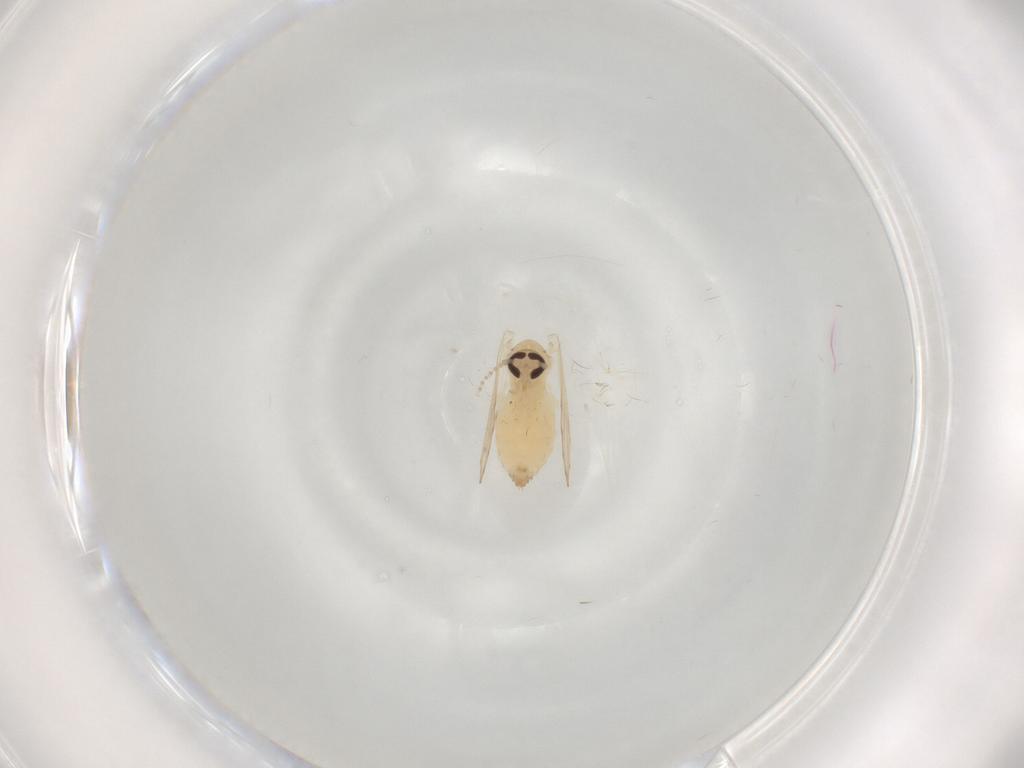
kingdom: Animalia
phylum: Arthropoda
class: Insecta
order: Diptera
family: Psychodidae
